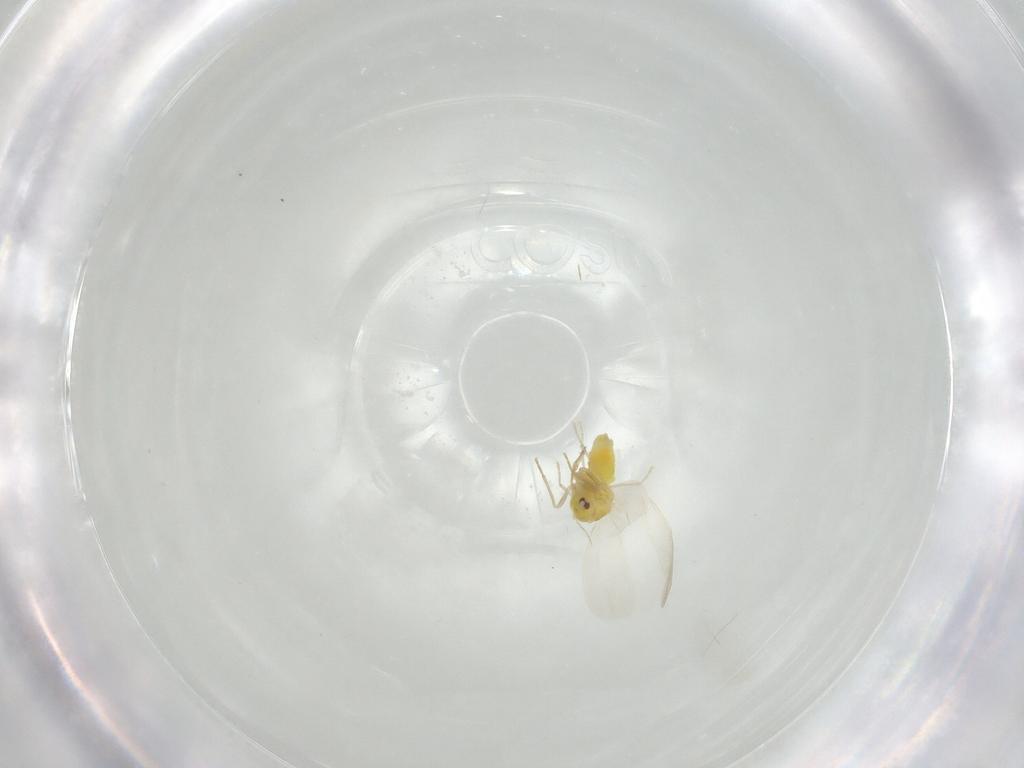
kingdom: Animalia
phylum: Arthropoda
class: Insecta
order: Hemiptera
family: Aleyrodidae
